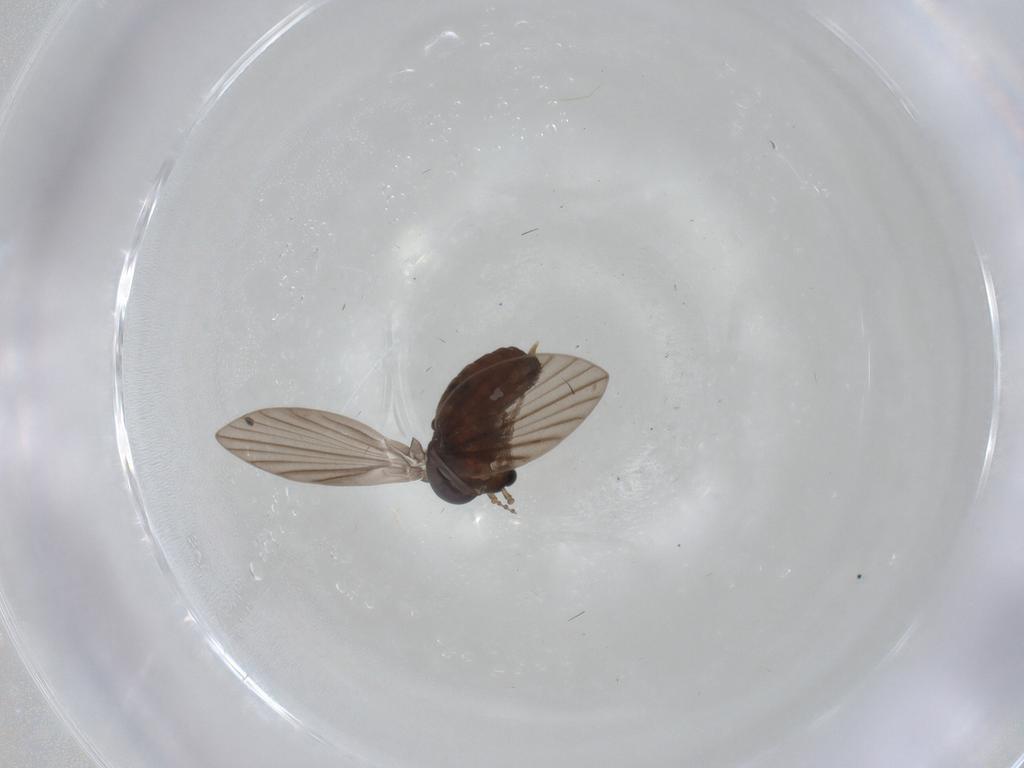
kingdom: Animalia
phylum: Arthropoda
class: Insecta
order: Diptera
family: Psychodidae
